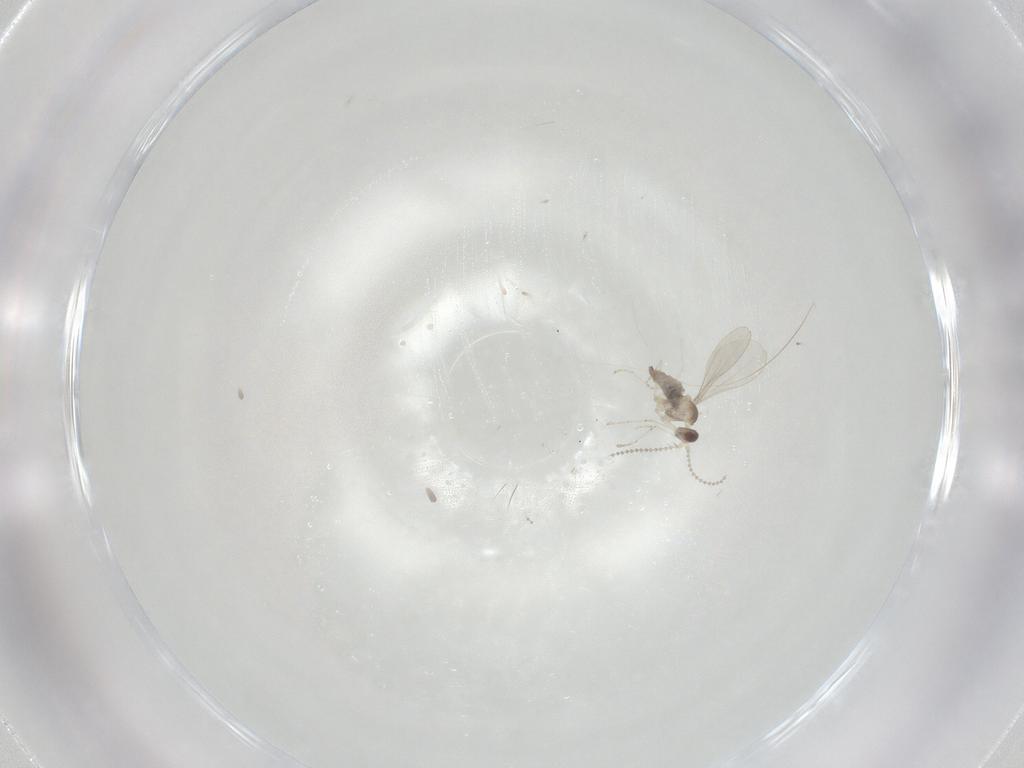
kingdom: Animalia
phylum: Arthropoda
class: Insecta
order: Diptera
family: Cecidomyiidae
